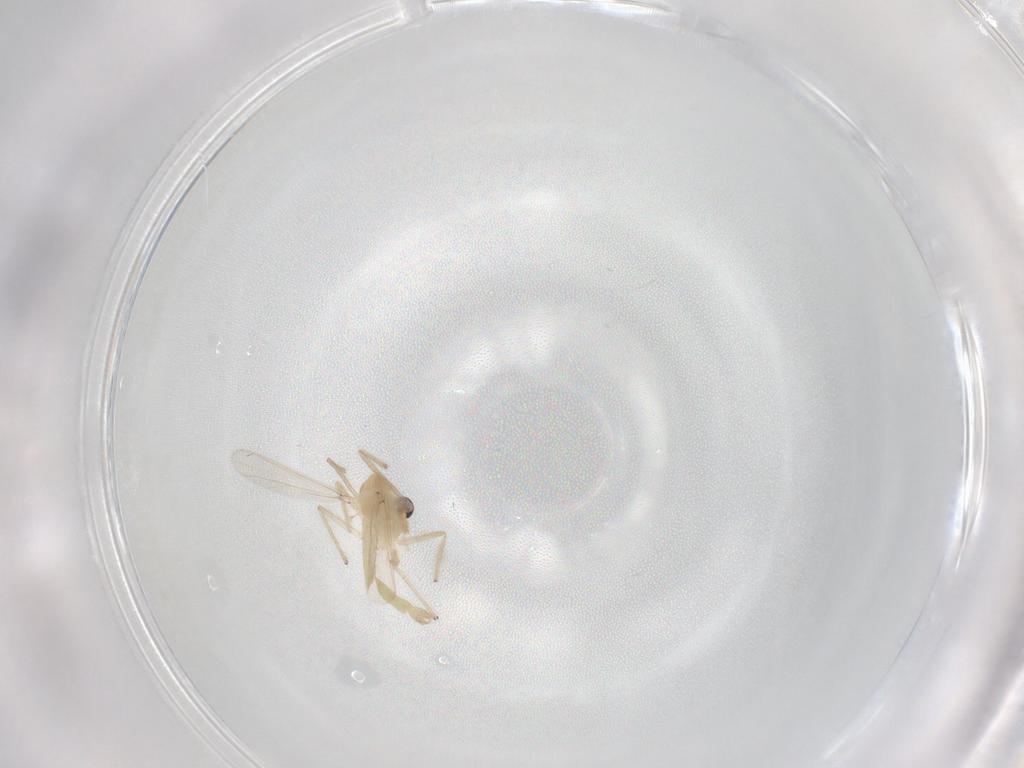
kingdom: Animalia
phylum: Arthropoda
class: Insecta
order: Diptera
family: Chironomidae
